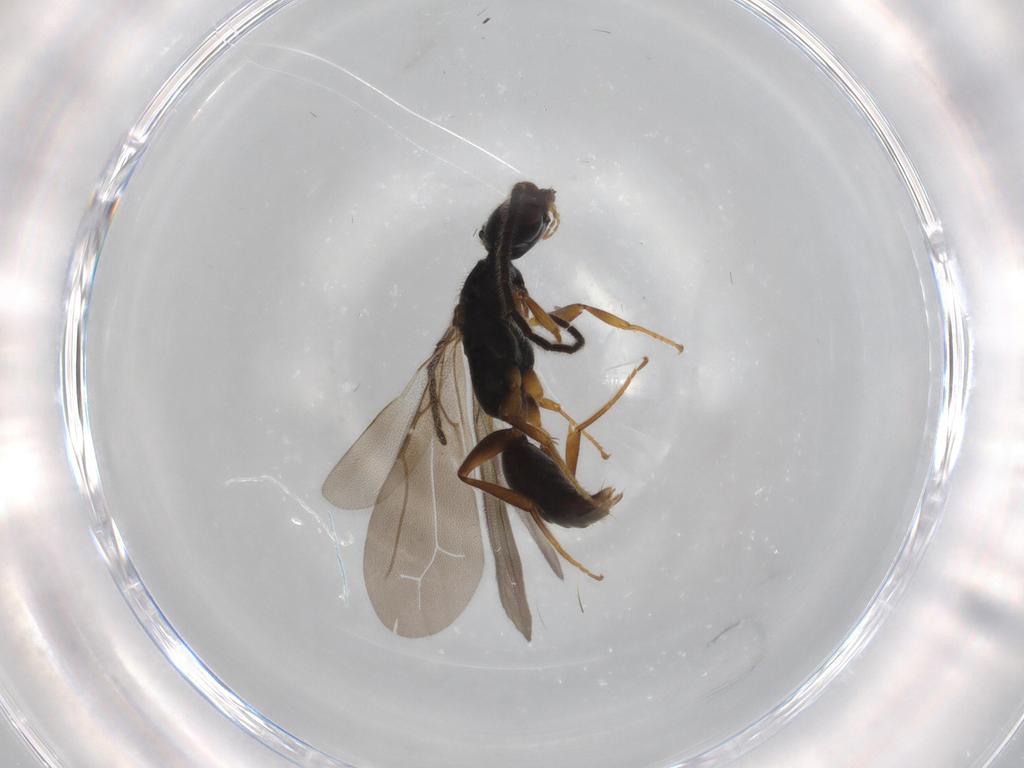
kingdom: Animalia
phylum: Arthropoda
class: Insecta
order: Hymenoptera
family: Bethylidae
